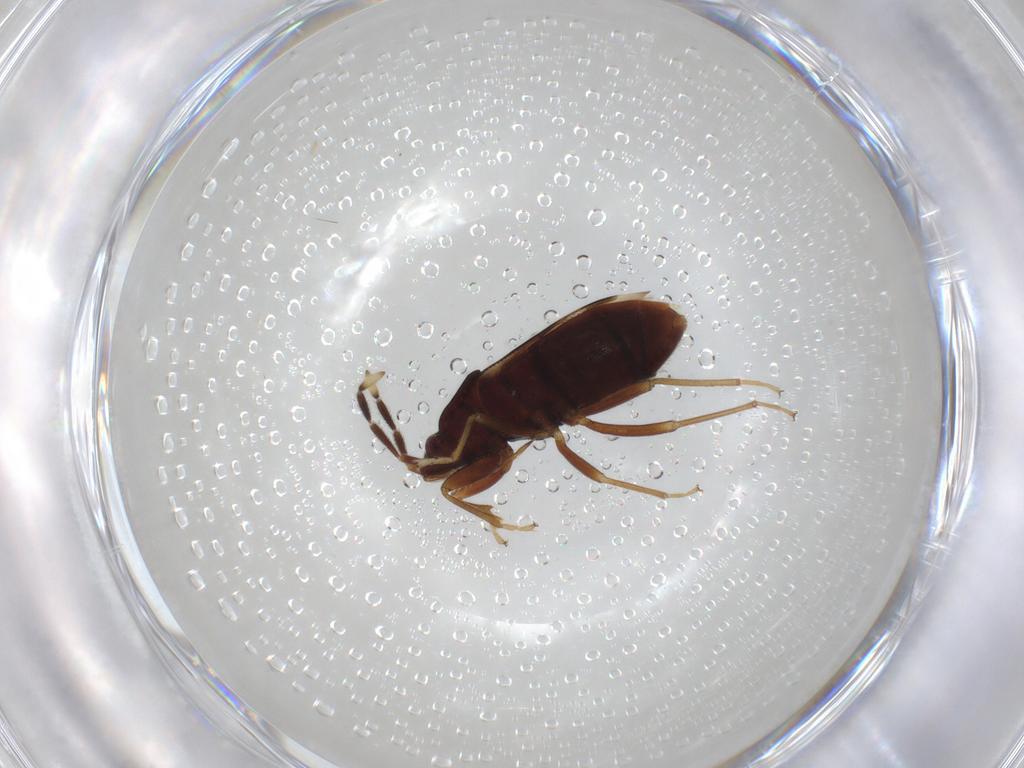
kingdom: Animalia
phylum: Arthropoda
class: Insecta
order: Hemiptera
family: Rhyparochromidae
